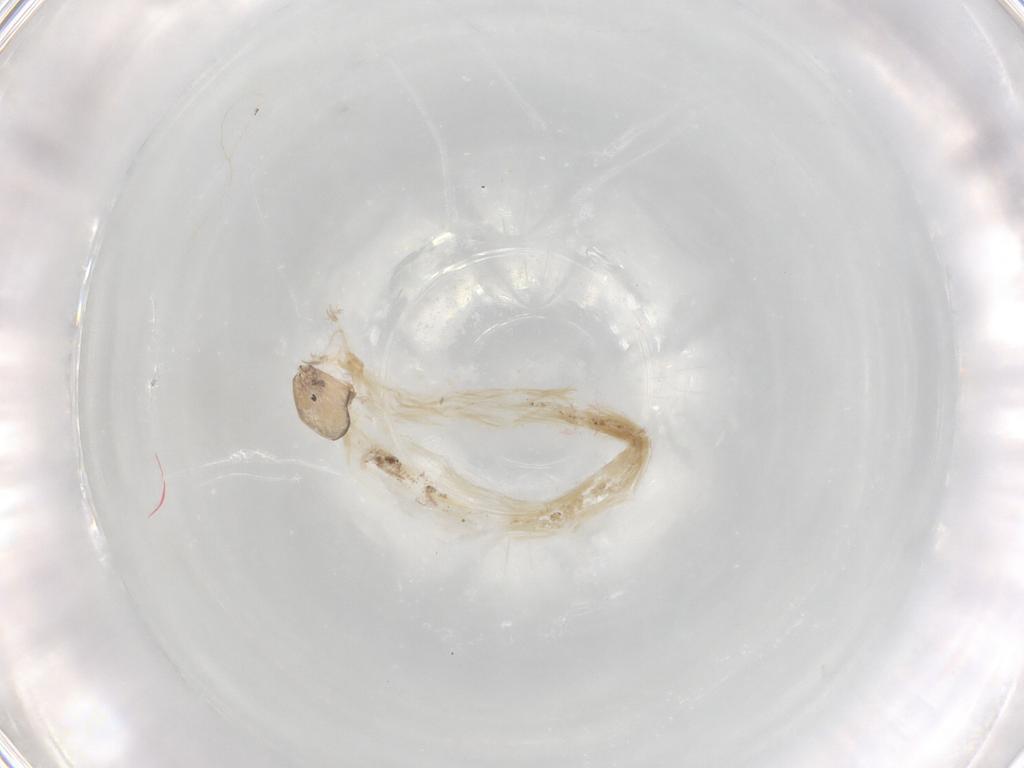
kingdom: Animalia
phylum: Arthropoda
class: Insecta
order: Diptera
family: Chironomidae
